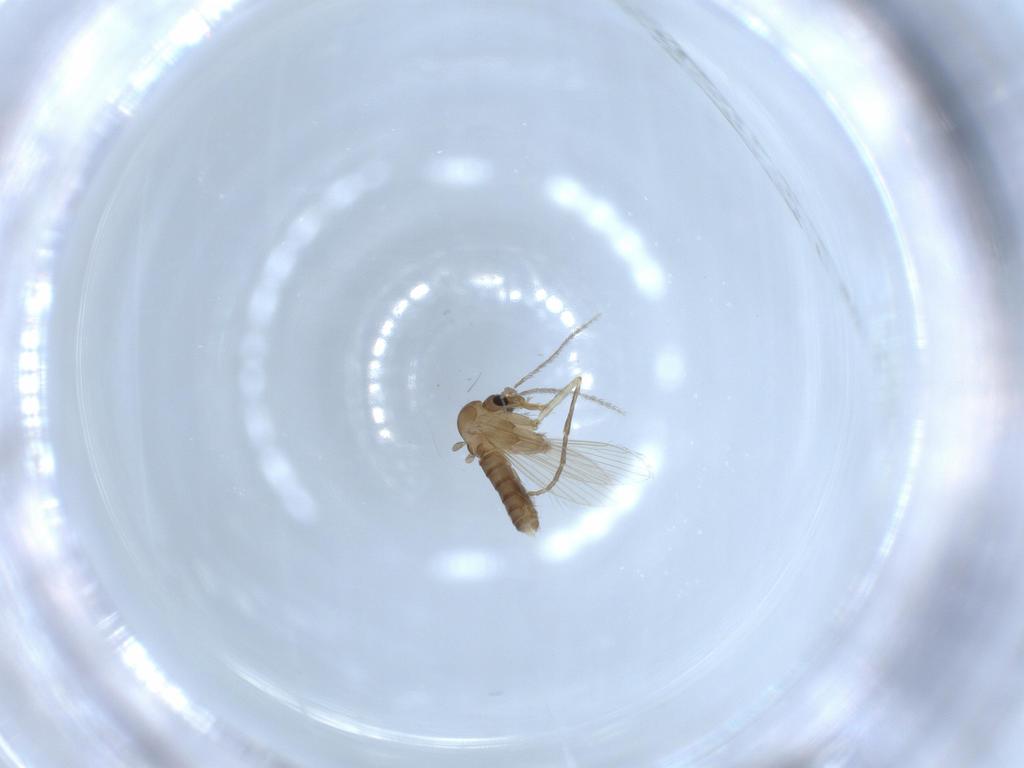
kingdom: Animalia
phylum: Arthropoda
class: Insecta
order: Diptera
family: Psychodidae
